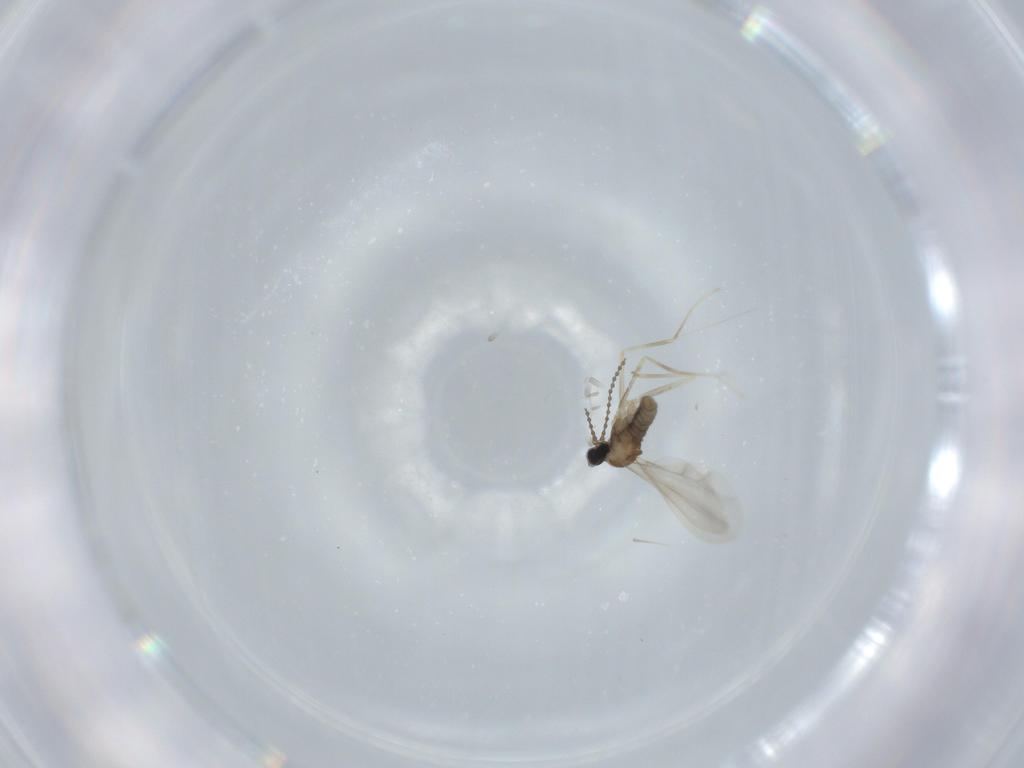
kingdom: Animalia
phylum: Arthropoda
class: Insecta
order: Diptera
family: Cecidomyiidae
